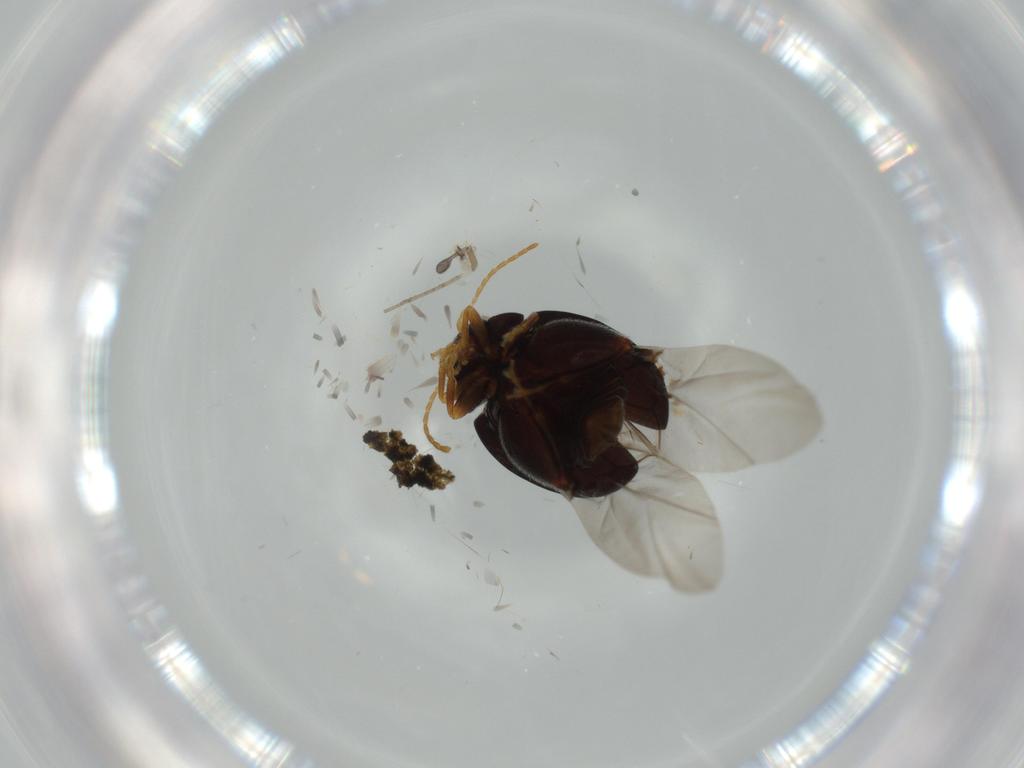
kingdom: Animalia
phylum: Arthropoda
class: Insecta
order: Coleoptera
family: Chrysomelidae
